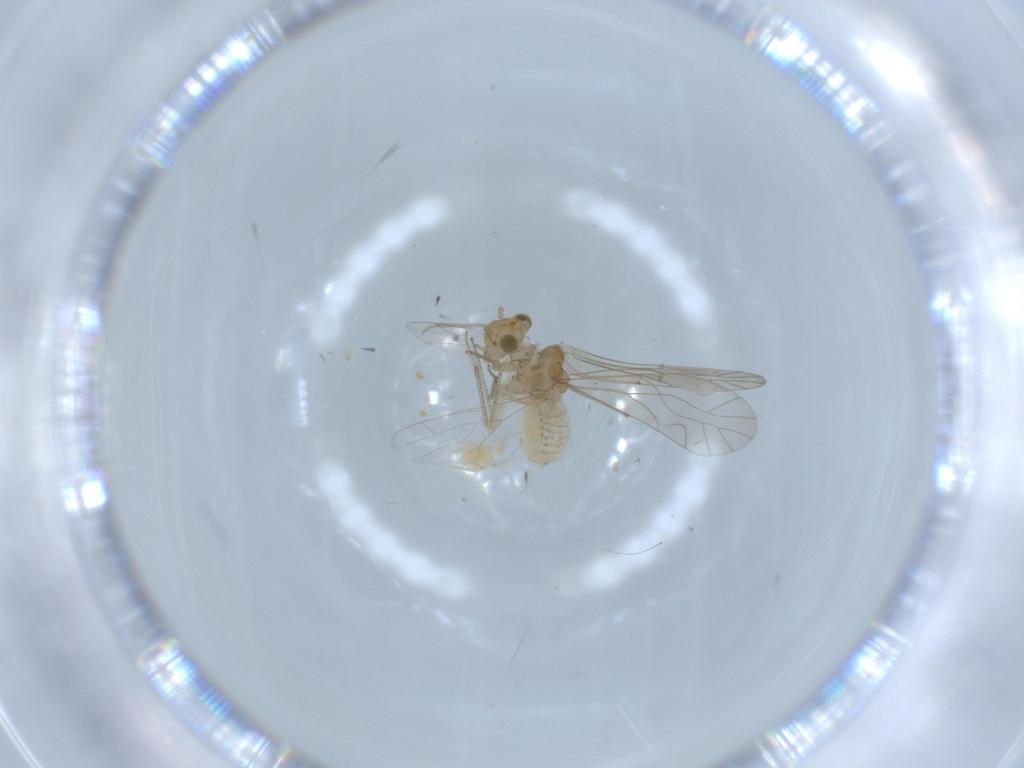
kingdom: Animalia
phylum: Arthropoda
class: Insecta
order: Psocodea
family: Lachesillidae
